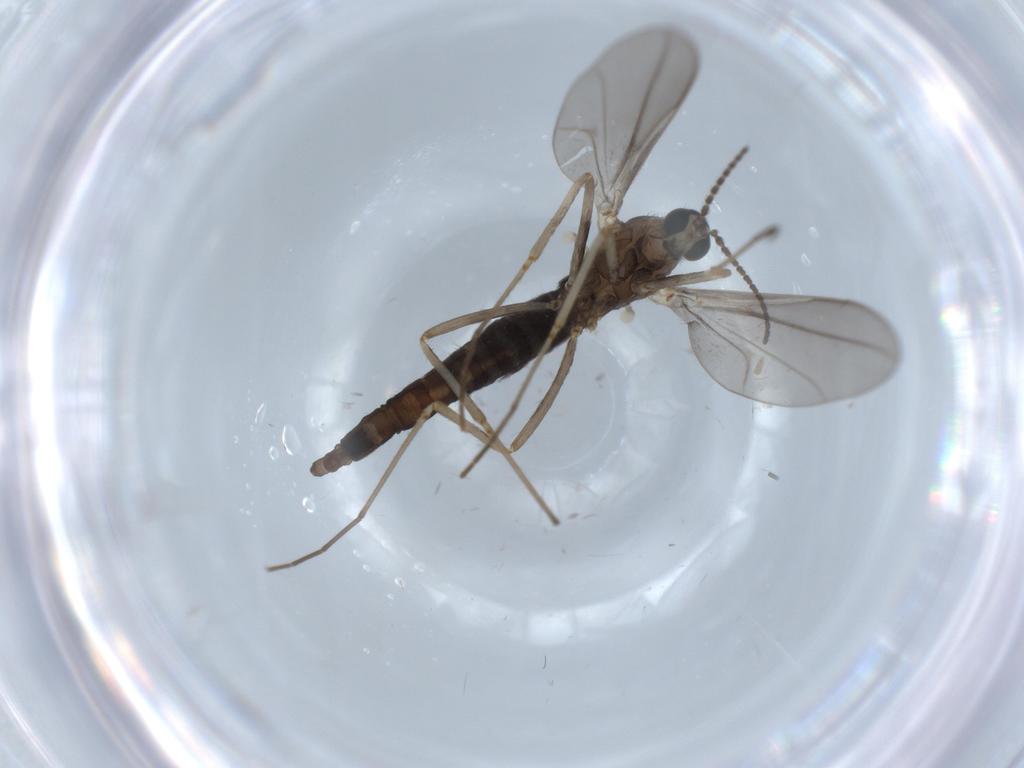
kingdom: Animalia
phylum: Arthropoda
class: Insecta
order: Diptera
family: Cecidomyiidae
